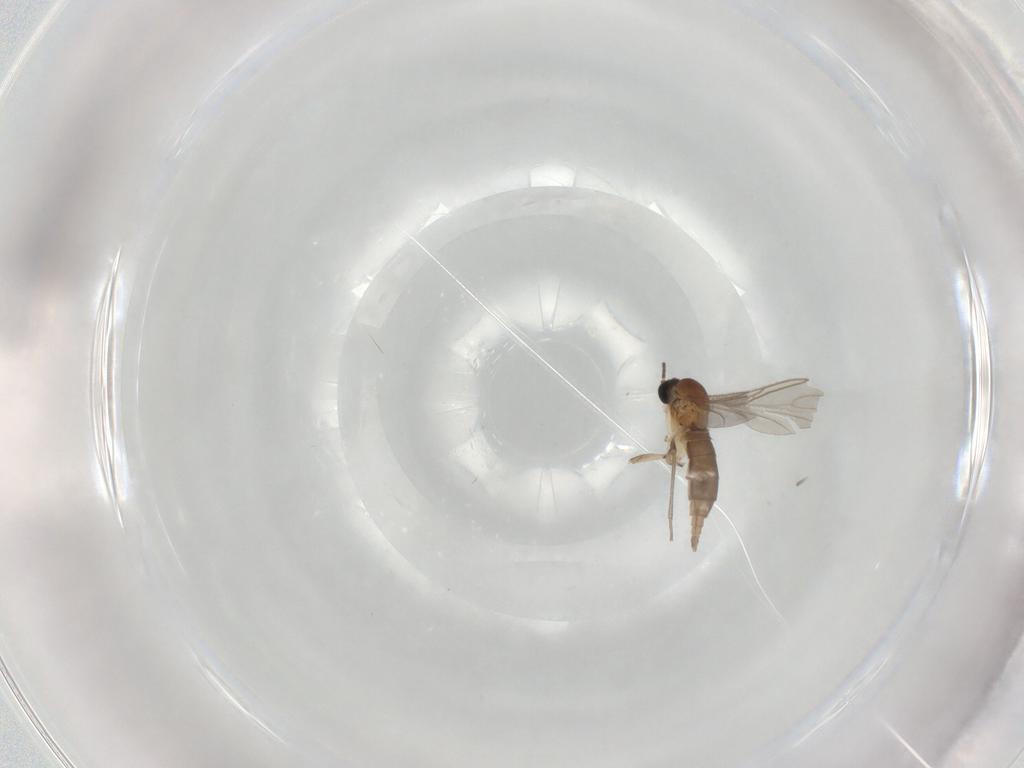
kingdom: Animalia
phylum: Arthropoda
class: Insecta
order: Diptera
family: Sciaridae
